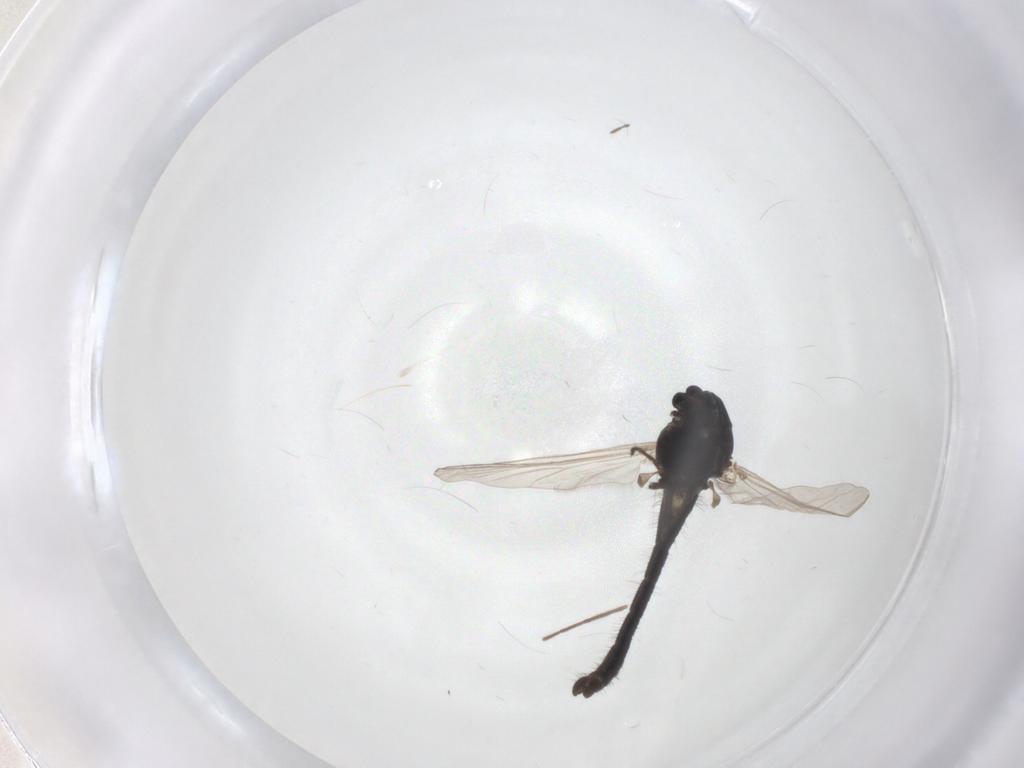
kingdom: Animalia
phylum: Arthropoda
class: Insecta
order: Diptera
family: Chironomidae
